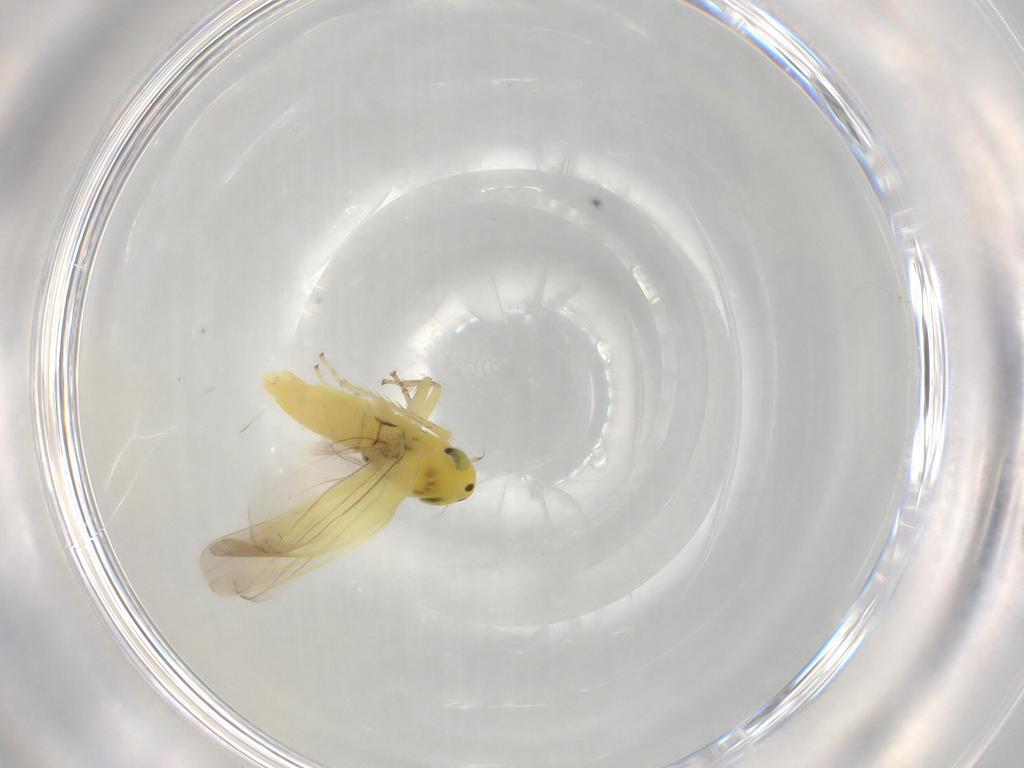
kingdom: Animalia
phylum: Arthropoda
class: Insecta
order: Hemiptera
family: Cicadellidae
